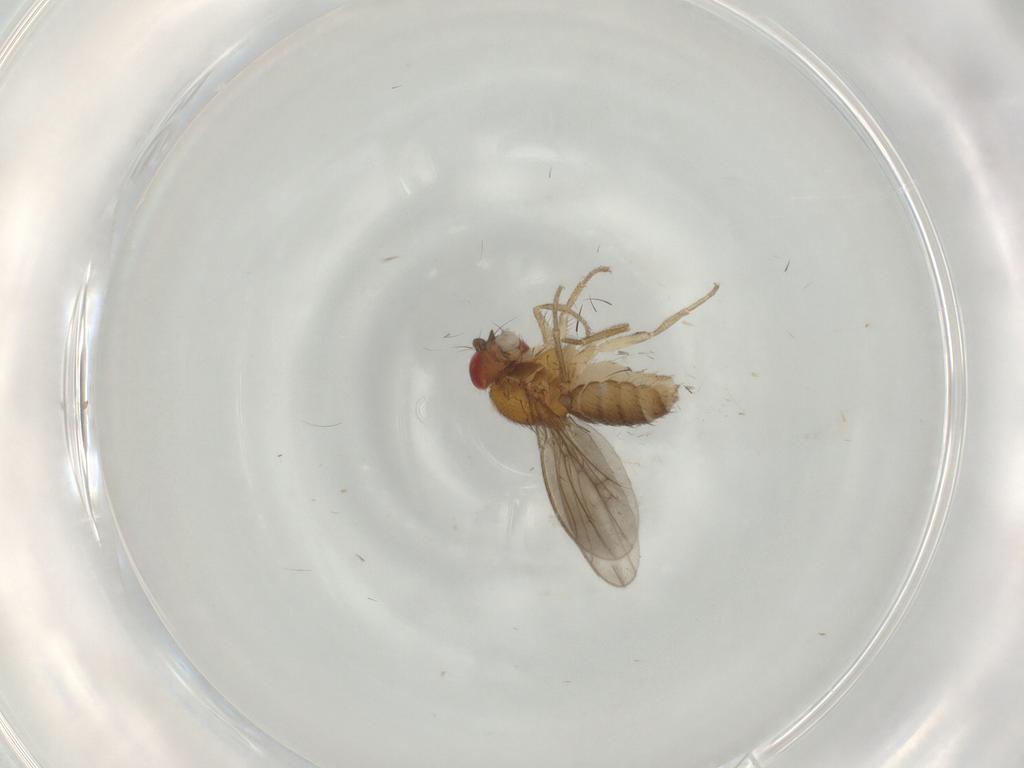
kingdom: Animalia
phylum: Arthropoda
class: Insecta
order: Diptera
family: Drosophilidae
